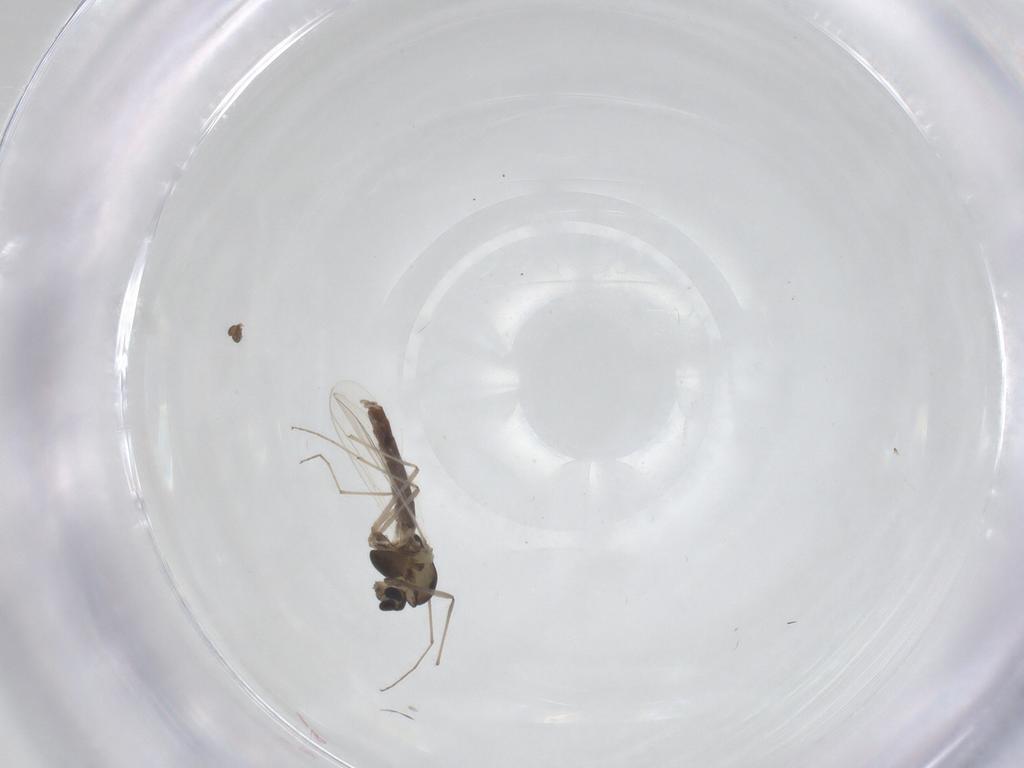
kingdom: Animalia
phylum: Arthropoda
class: Insecta
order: Diptera
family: Chironomidae
